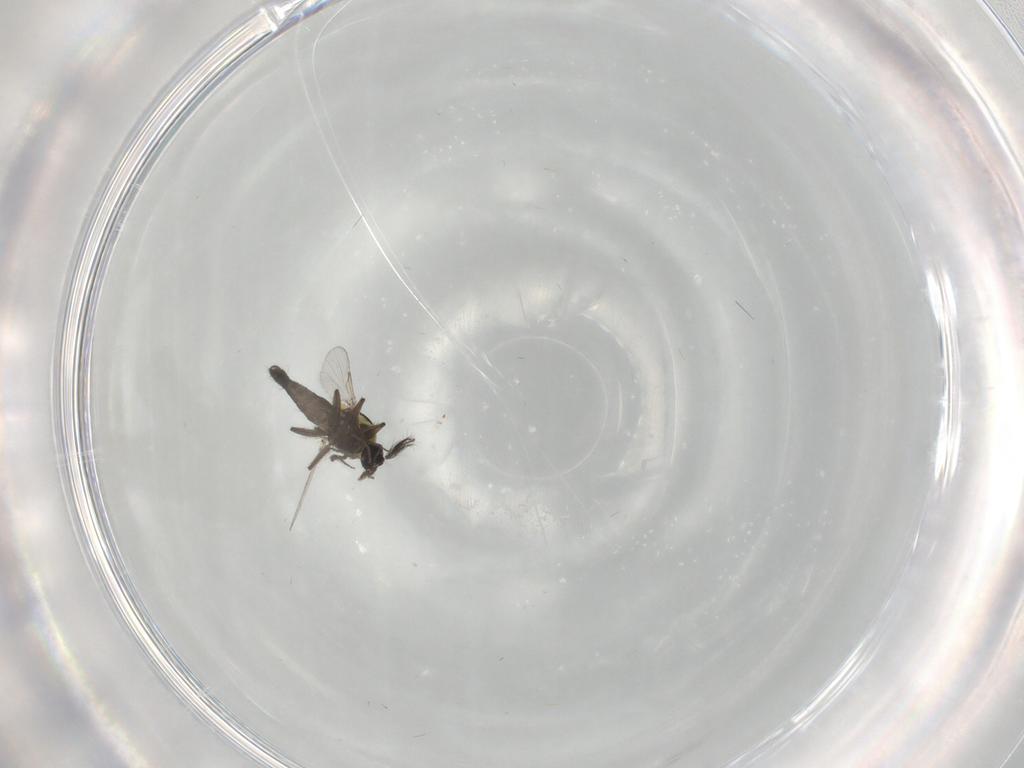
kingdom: Animalia
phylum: Arthropoda
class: Insecta
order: Diptera
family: Ceratopogonidae
